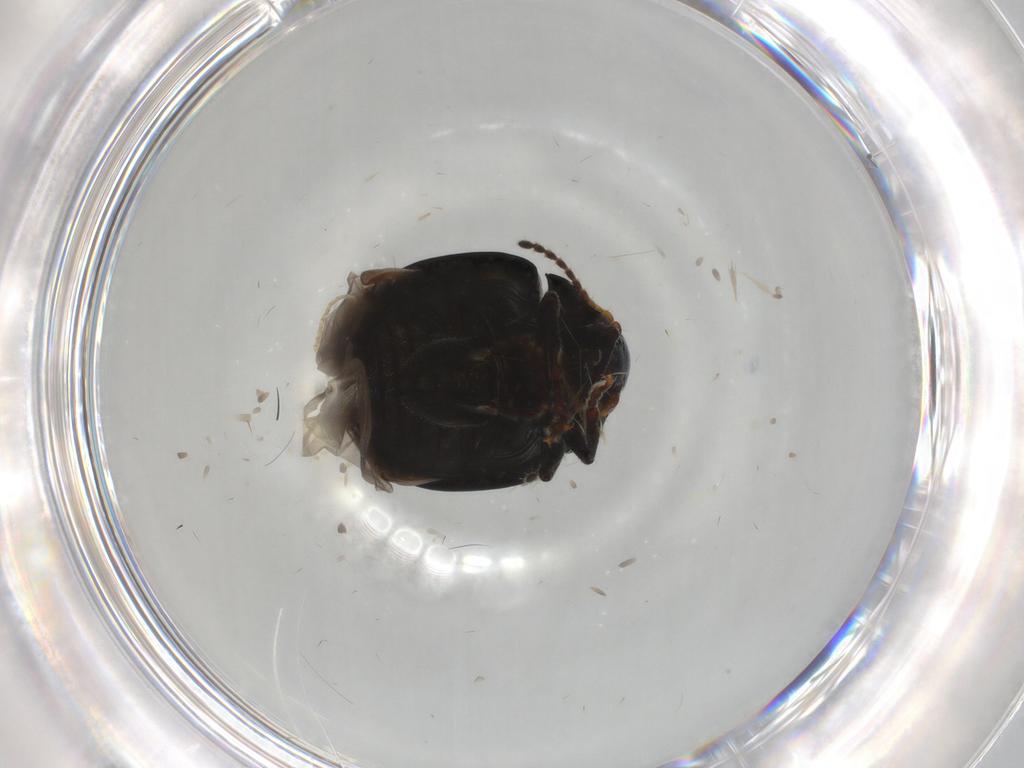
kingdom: Animalia
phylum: Arthropoda
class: Insecta
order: Coleoptera
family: Chrysomelidae
